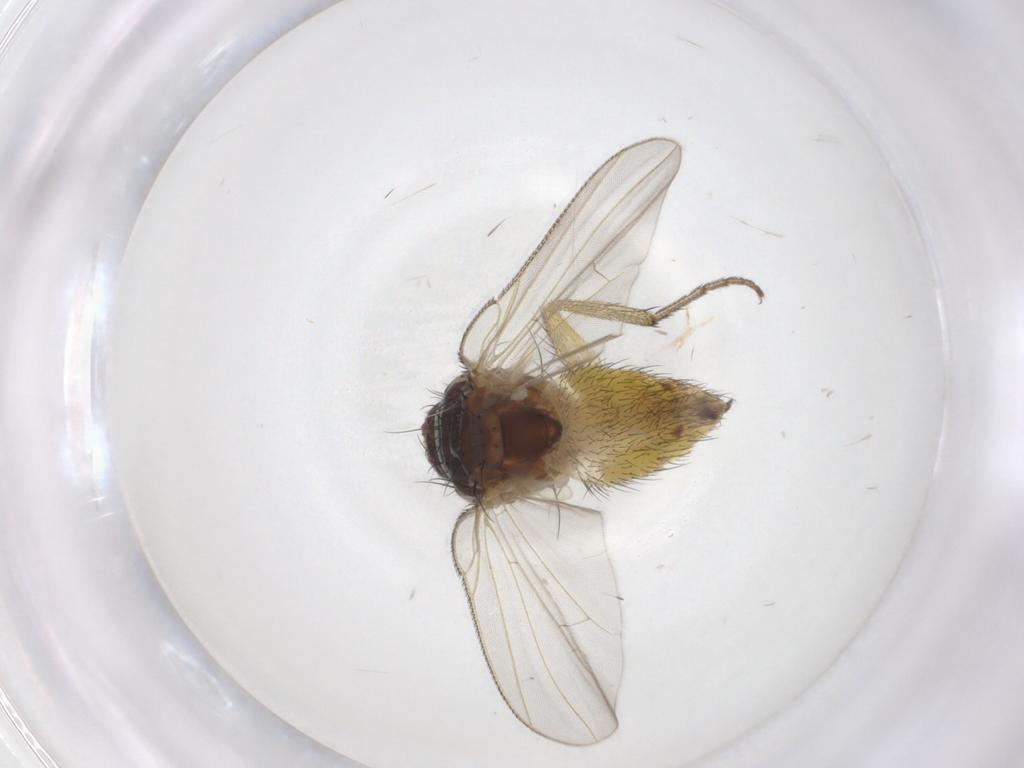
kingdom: Animalia
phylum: Arthropoda
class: Insecta
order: Diptera
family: Muscidae
